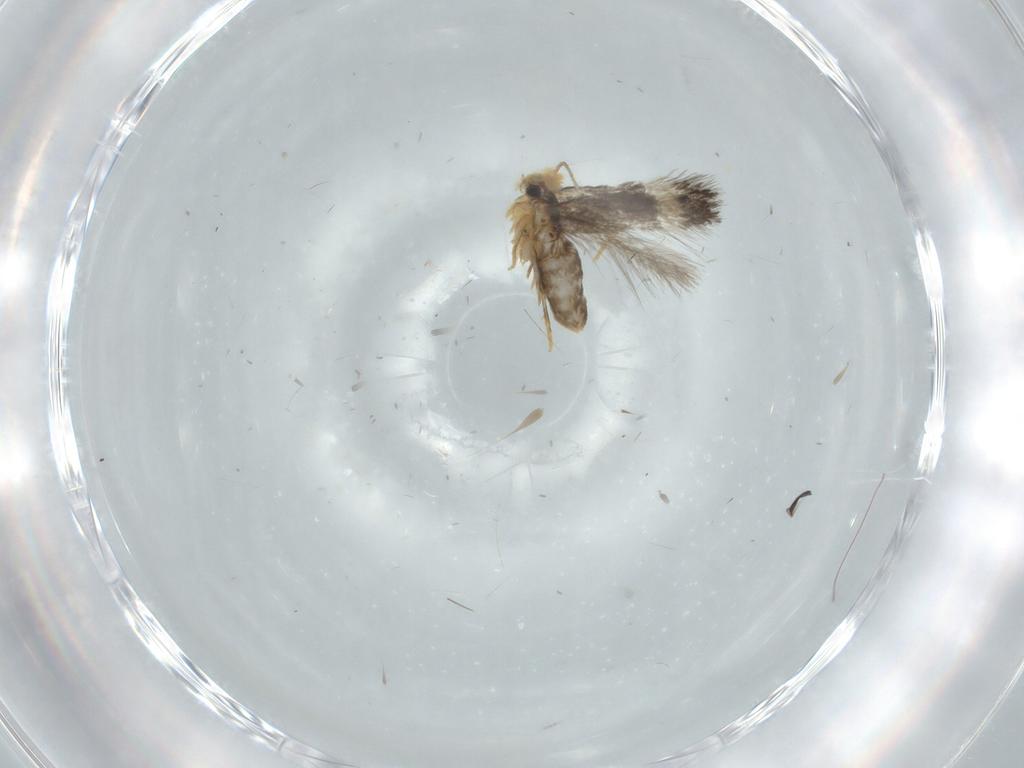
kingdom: Animalia
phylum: Arthropoda
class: Insecta
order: Lepidoptera
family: Nepticulidae
